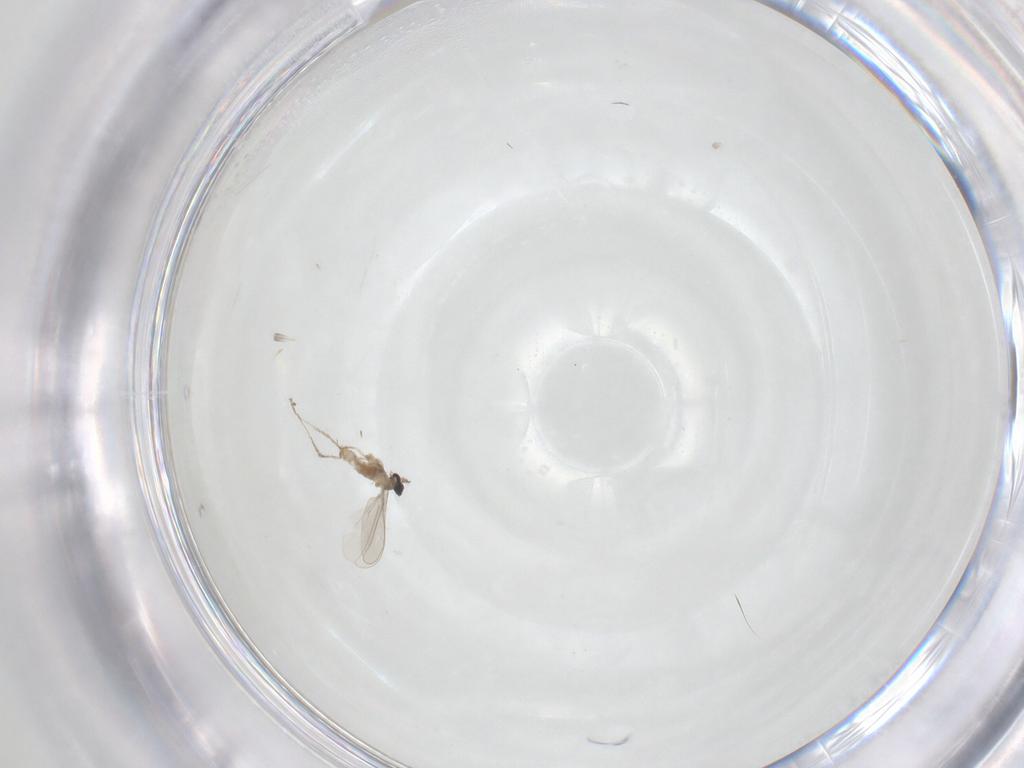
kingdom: Animalia
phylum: Arthropoda
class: Insecta
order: Diptera
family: Cecidomyiidae
